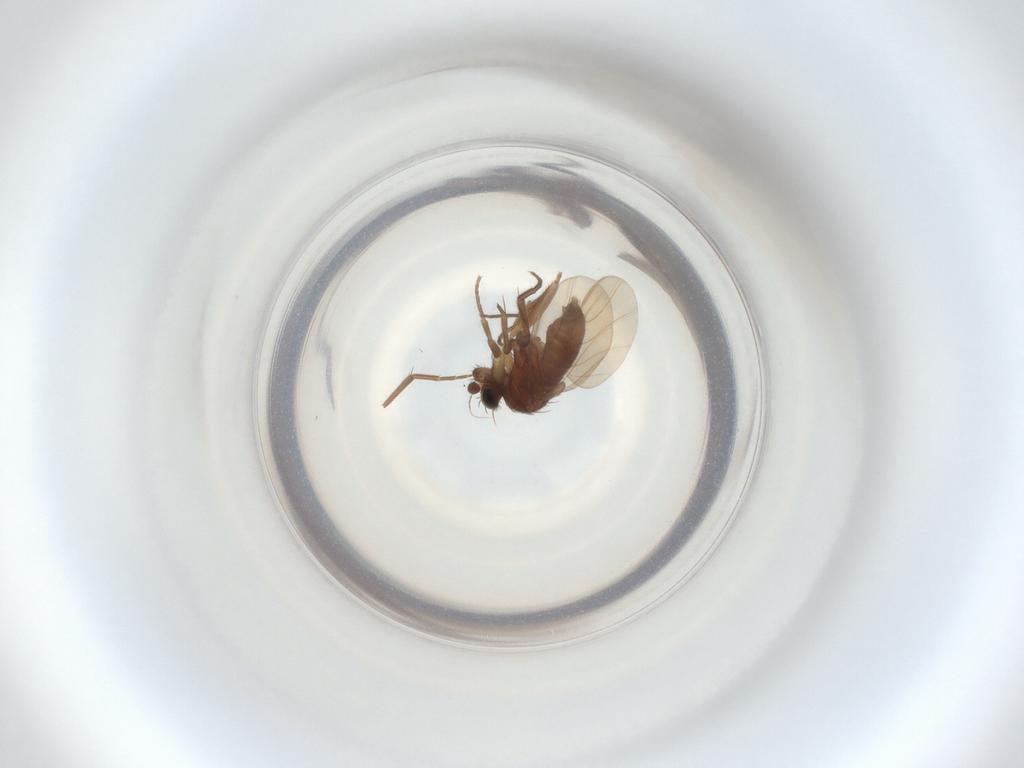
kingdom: Animalia
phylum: Arthropoda
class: Insecta
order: Diptera
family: Phoridae
